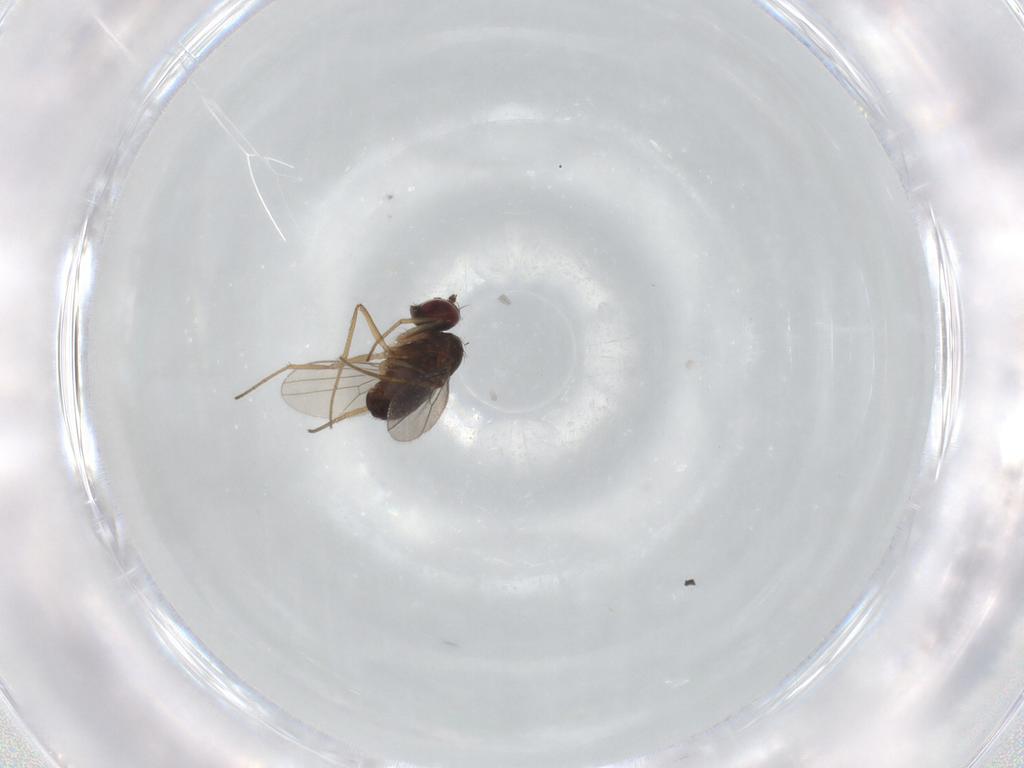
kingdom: Animalia
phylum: Arthropoda
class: Insecta
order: Diptera
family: Dolichopodidae
